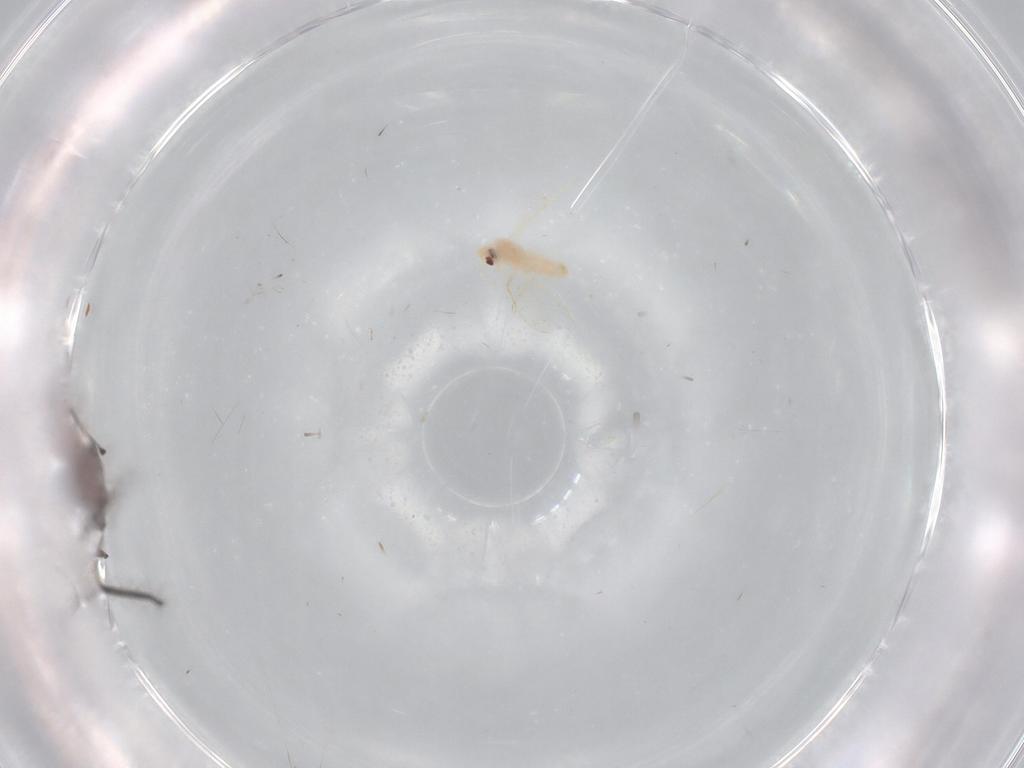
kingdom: Animalia
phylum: Arthropoda
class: Insecta
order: Hemiptera
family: Aleyrodidae
